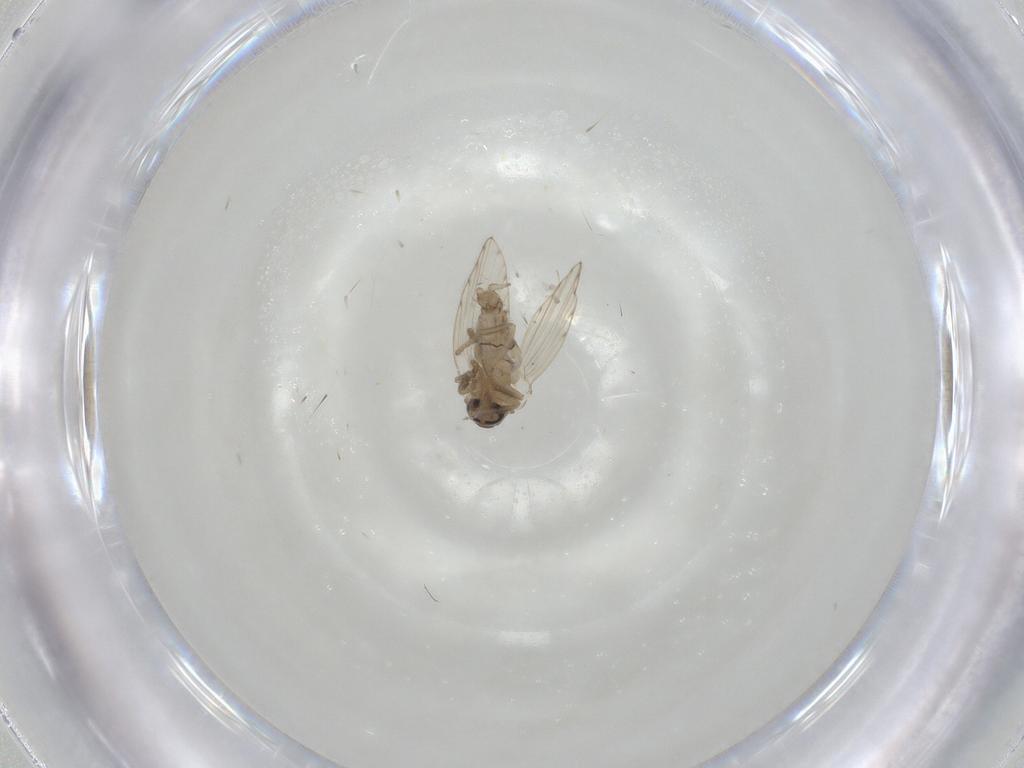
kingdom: Animalia
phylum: Arthropoda
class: Insecta
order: Diptera
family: Psychodidae
